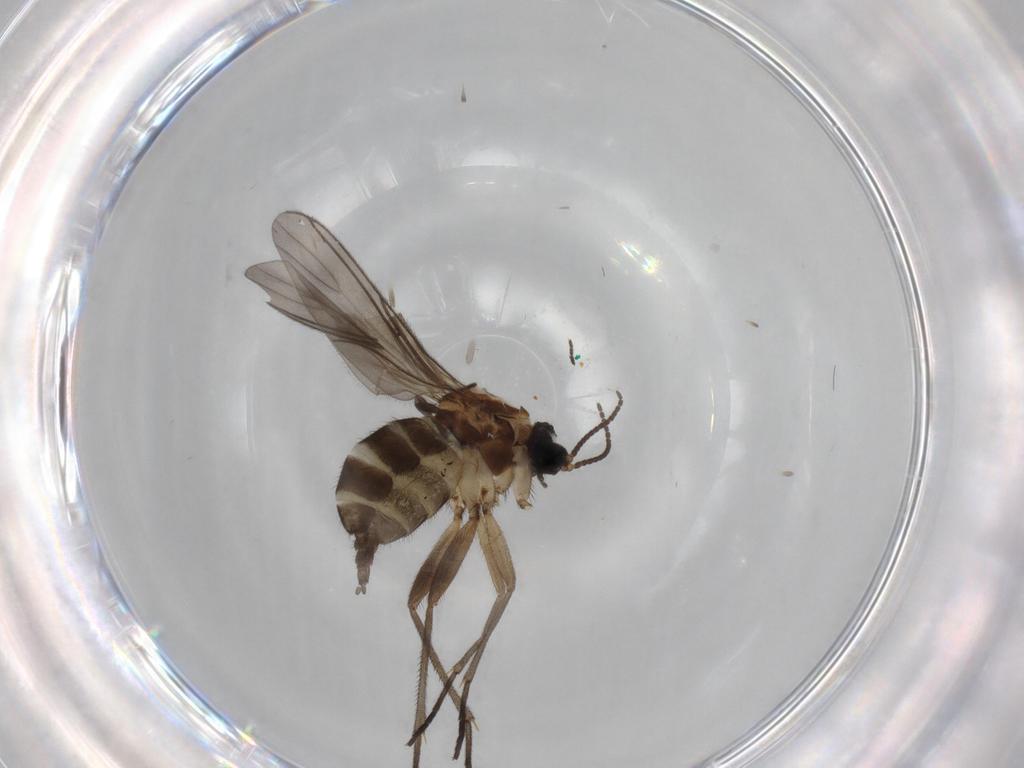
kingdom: Animalia
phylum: Arthropoda
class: Insecta
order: Diptera
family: Sciaridae
